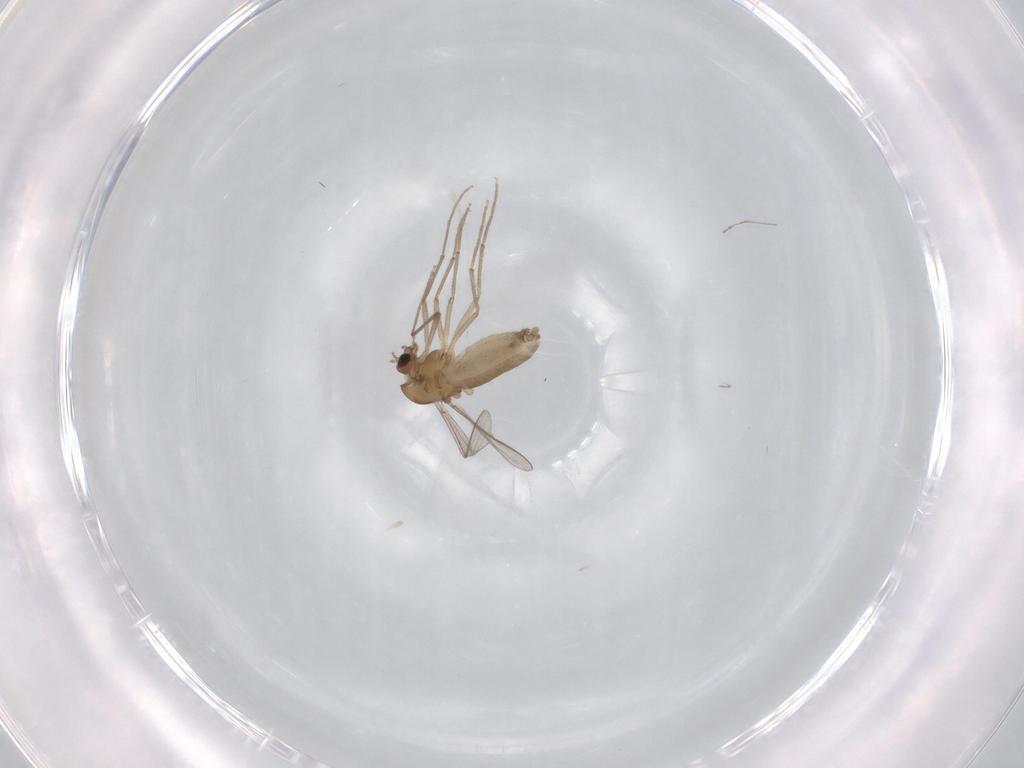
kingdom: Animalia
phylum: Arthropoda
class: Insecta
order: Diptera
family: Chironomidae
